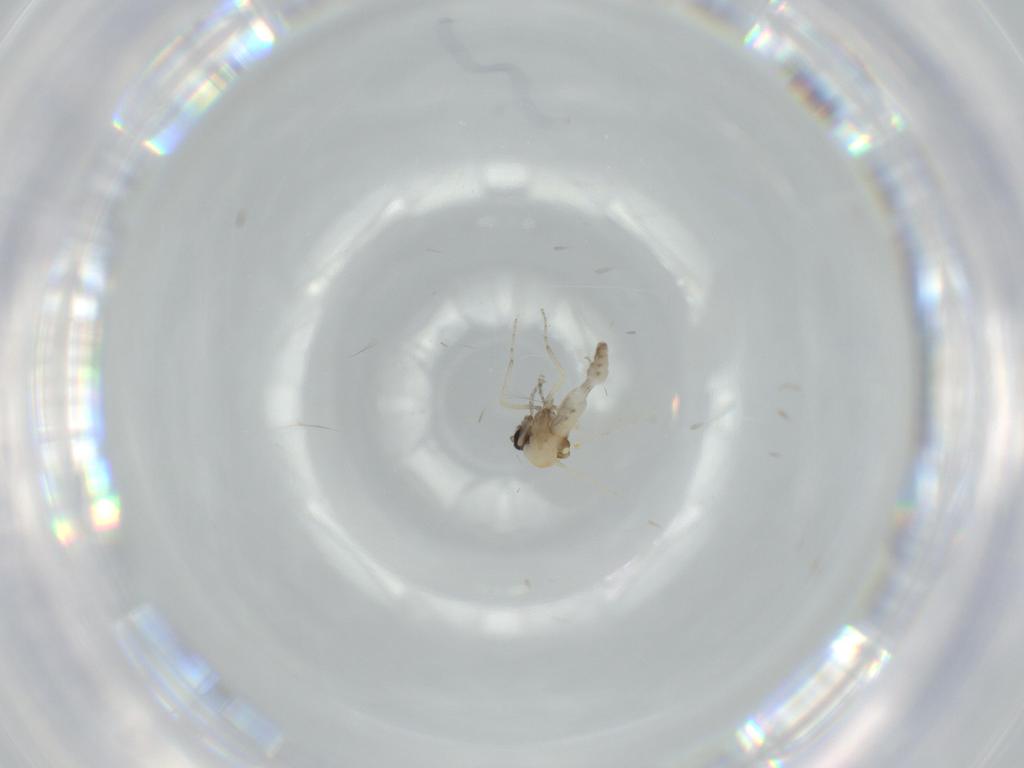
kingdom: Animalia
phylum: Arthropoda
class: Insecta
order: Diptera
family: Ceratopogonidae
